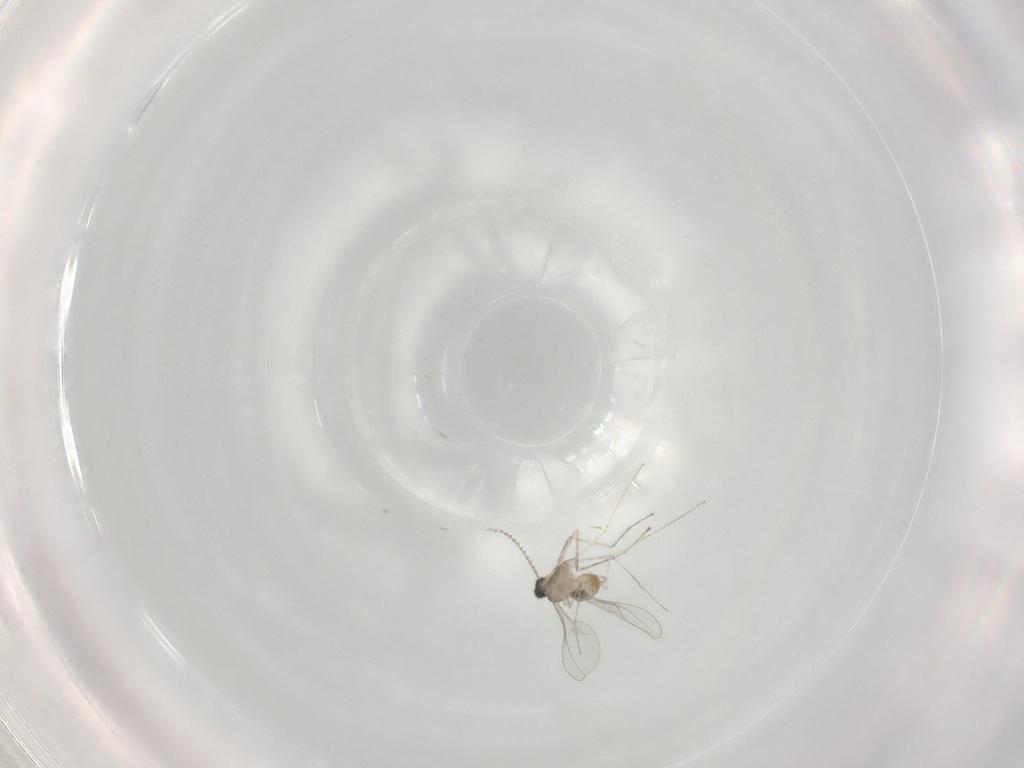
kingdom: Animalia
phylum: Arthropoda
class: Insecta
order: Diptera
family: Cecidomyiidae
